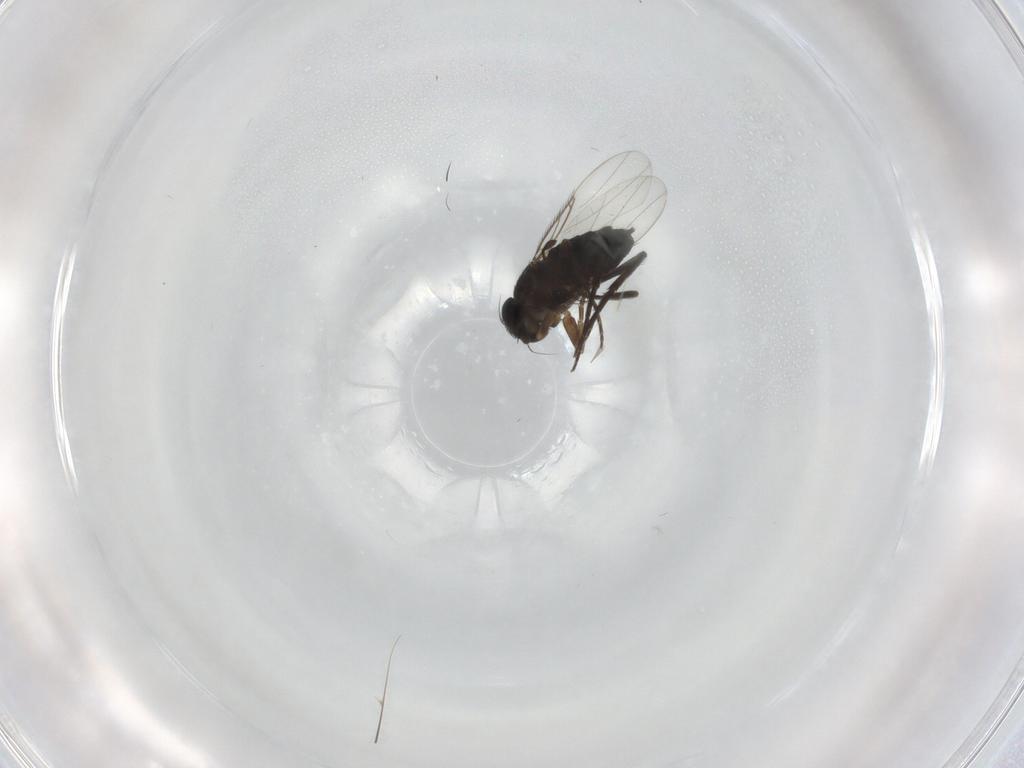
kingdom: Animalia
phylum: Arthropoda
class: Insecta
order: Diptera
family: Phoridae
